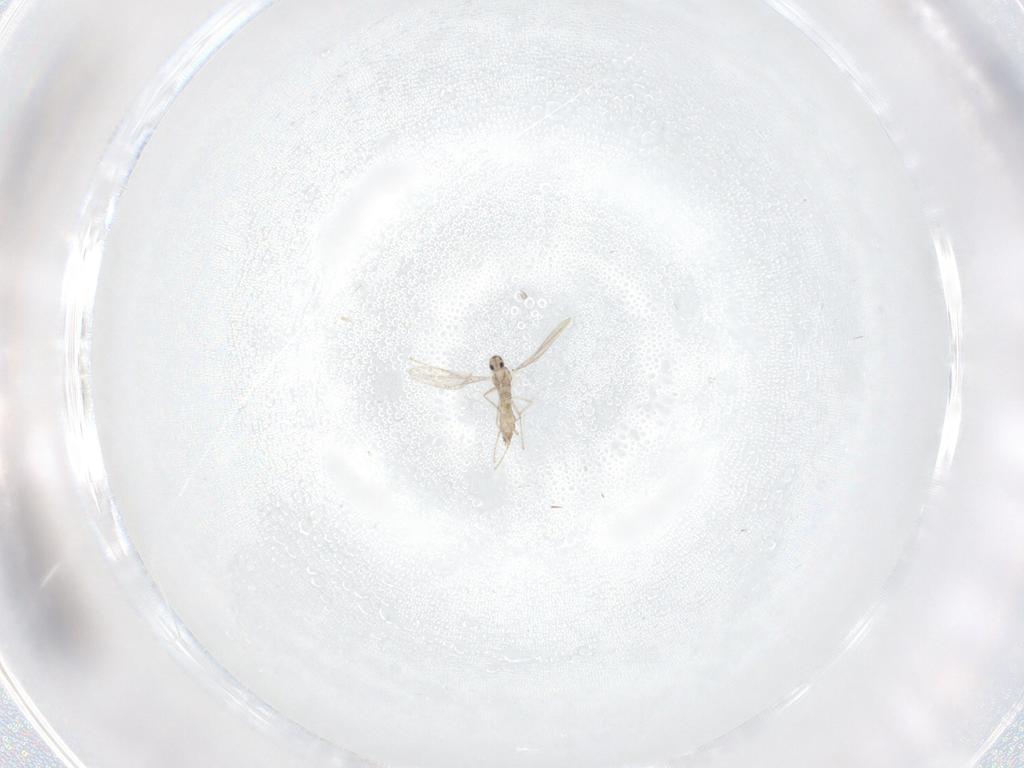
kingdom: Animalia
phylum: Arthropoda
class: Insecta
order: Diptera
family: Cecidomyiidae
